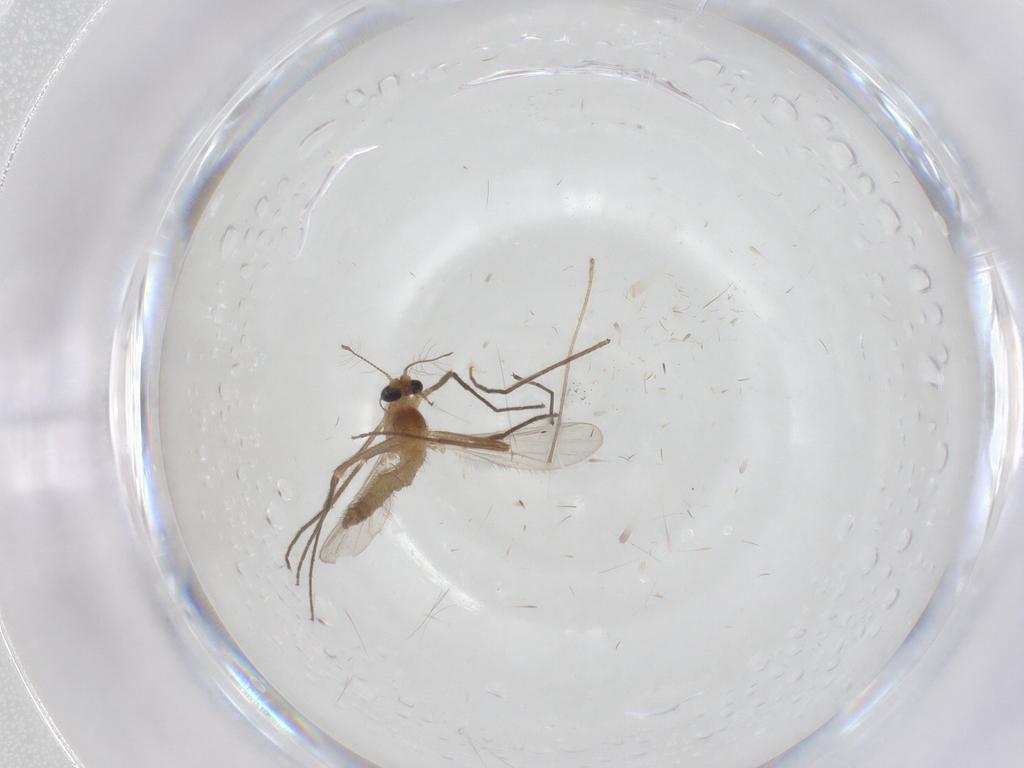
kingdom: Animalia
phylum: Arthropoda
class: Insecta
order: Diptera
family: Chironomidae
